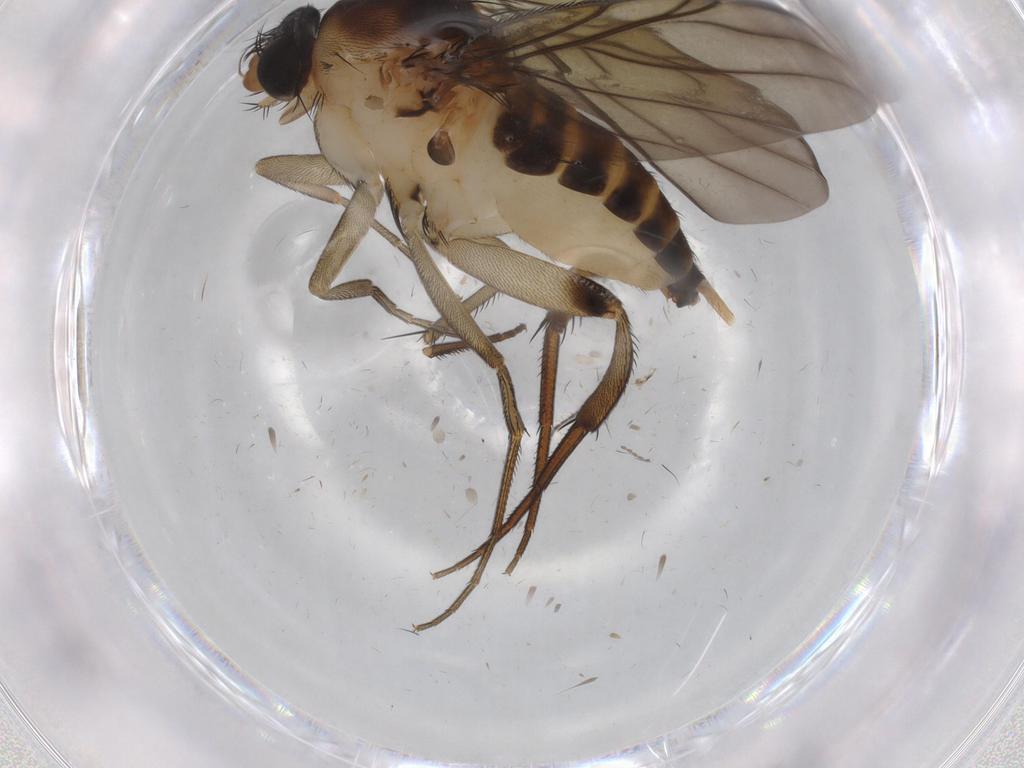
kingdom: Animalia
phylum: Arthropoda
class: Insecta
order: Diptera
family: Phoridae
